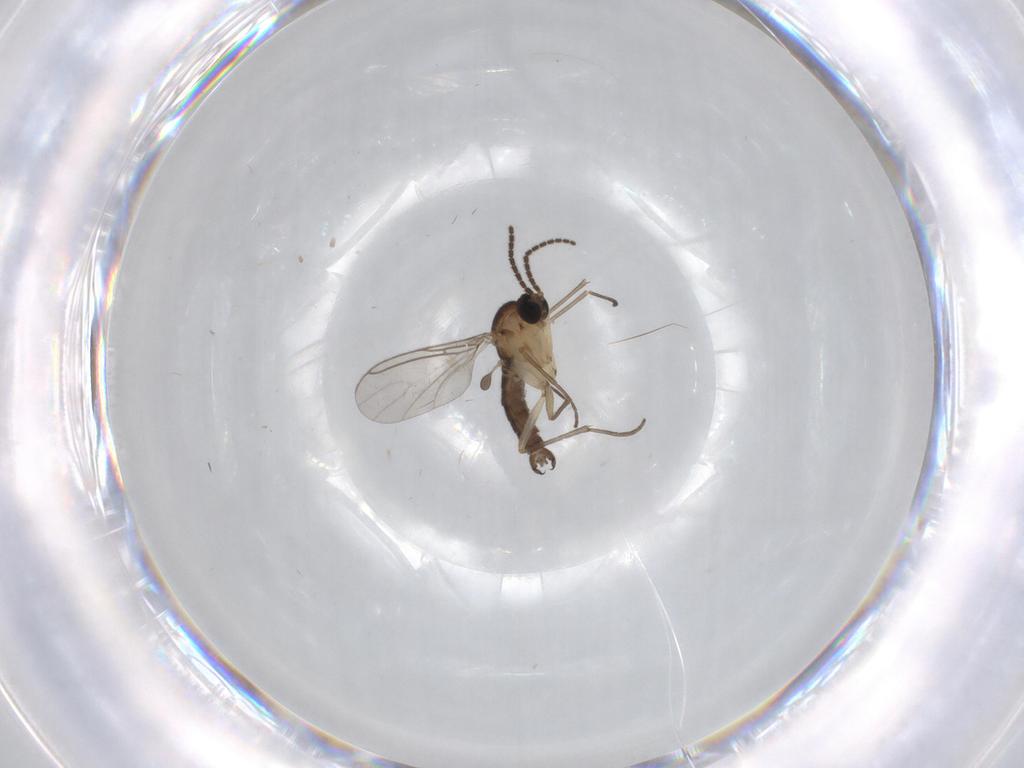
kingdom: Animalia
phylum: Arthropoda
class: Insecta
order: Diptera
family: Sciaridae
